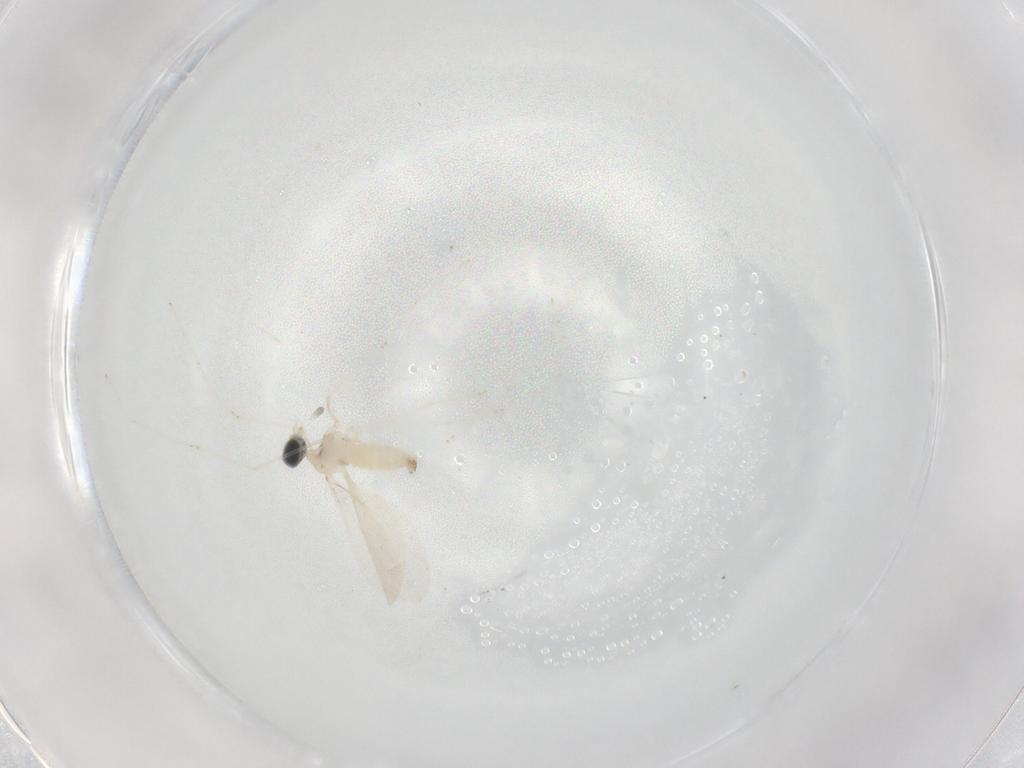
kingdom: Animalia
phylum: Arthropoda
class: Insecta
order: Diptera
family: Cecidomyiidae
